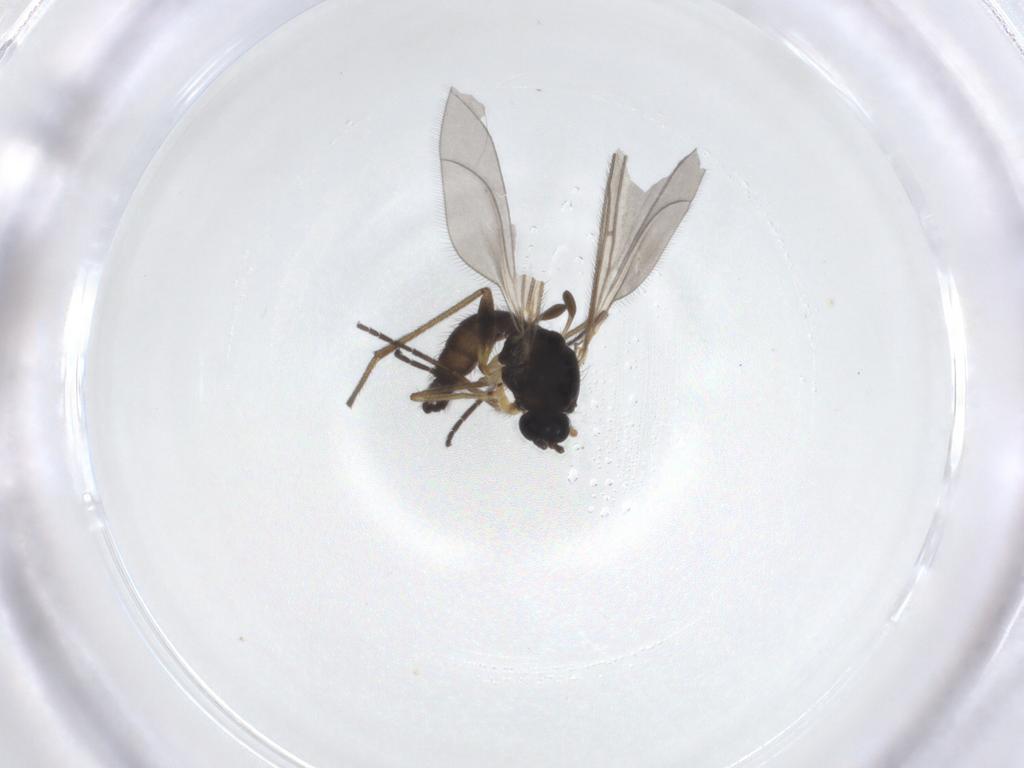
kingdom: Animalia
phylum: Arthropoda
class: Insecta
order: Diptera
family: Sciaridae
